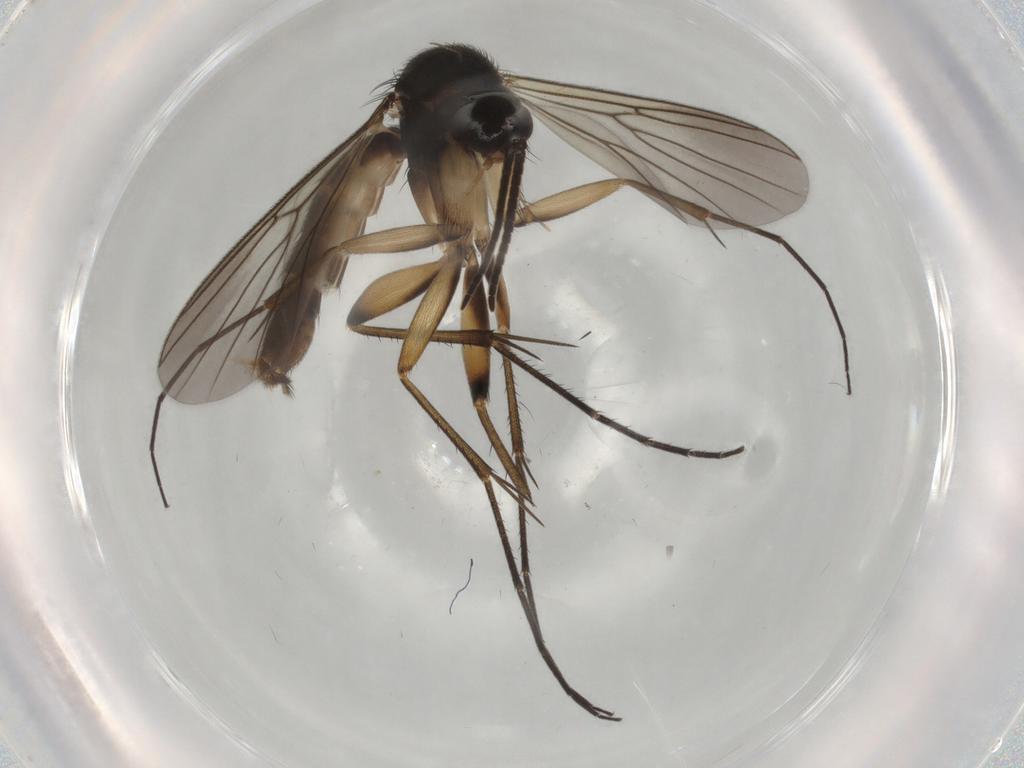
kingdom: Animalia
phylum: Arthropoda
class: Insecta
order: Diptera
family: Mycetophilidae
